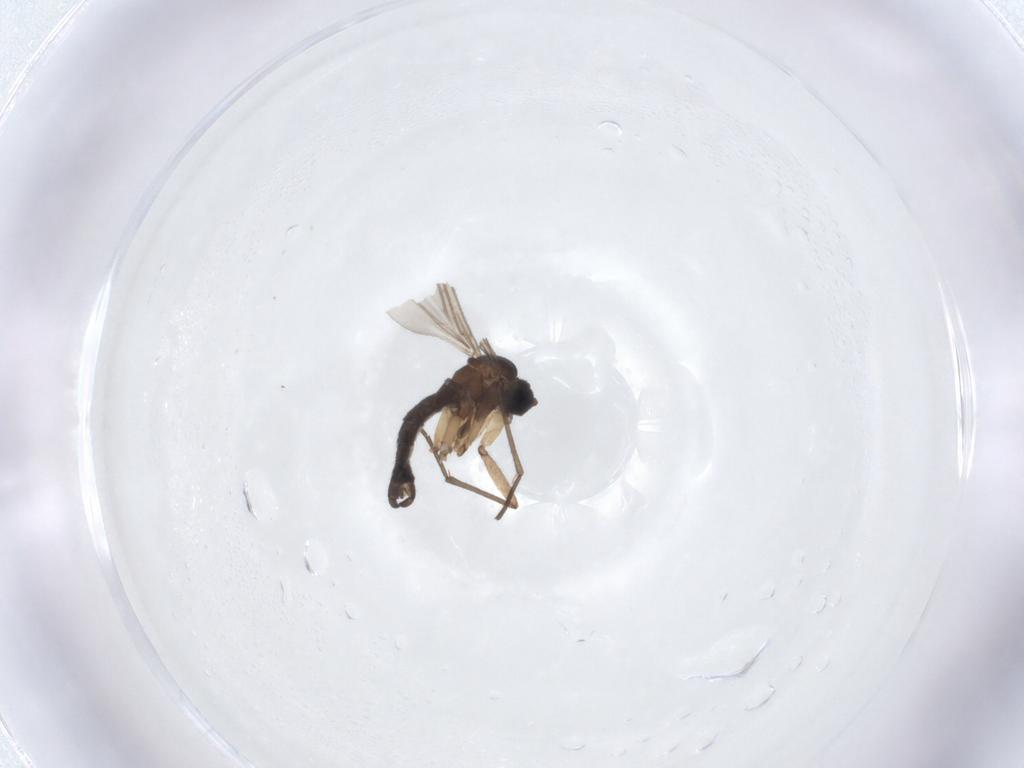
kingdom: Animalia
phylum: Arthropoda
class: Insecta
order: Diptera
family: Sciaridae
